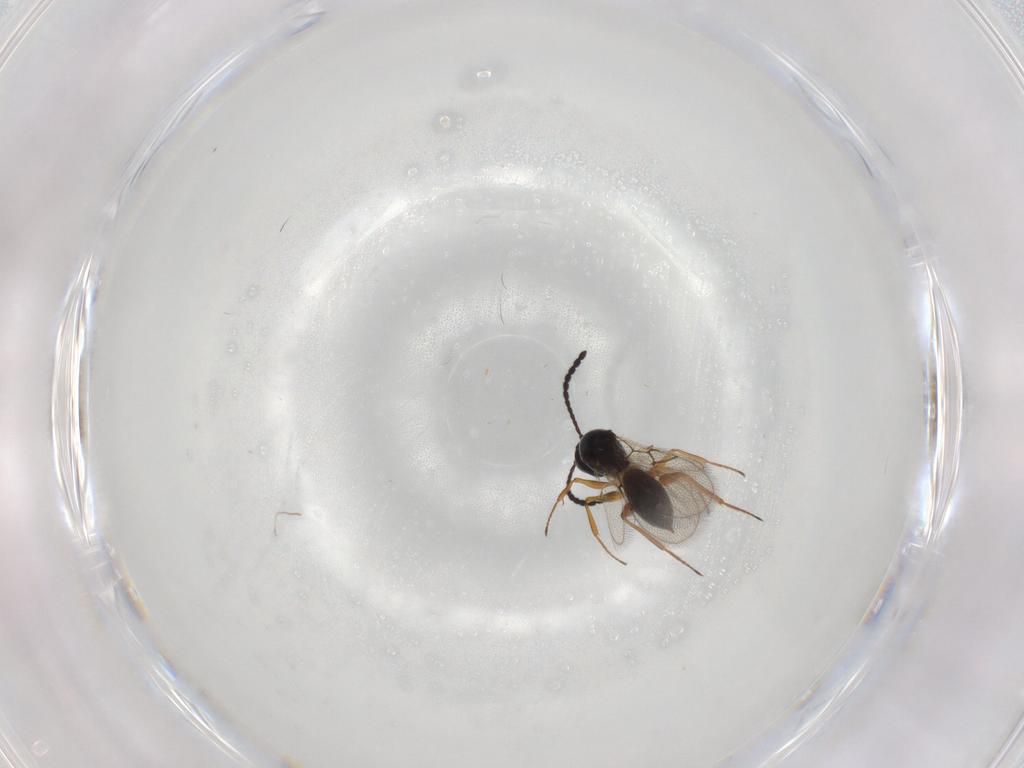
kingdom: Animalia
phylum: Arthropoda
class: Insecta
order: Hymenoptera
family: Figitidae
